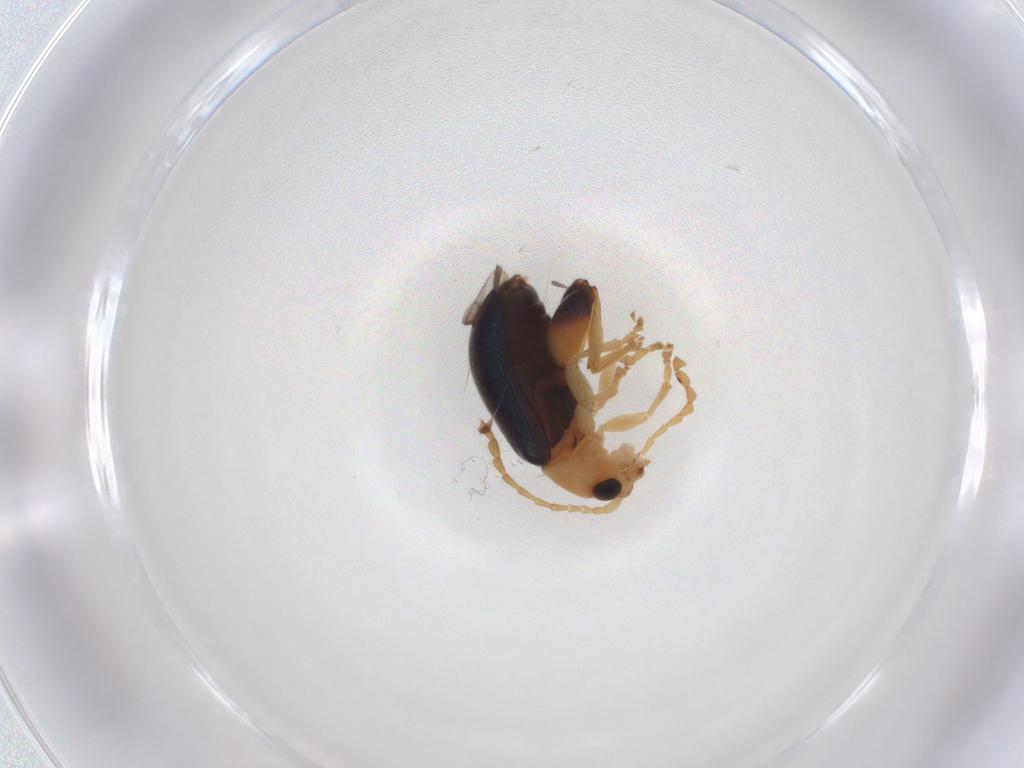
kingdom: Animalia
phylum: Arthropoda
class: Insecta
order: Coleoptera
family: Chrysomelidae
